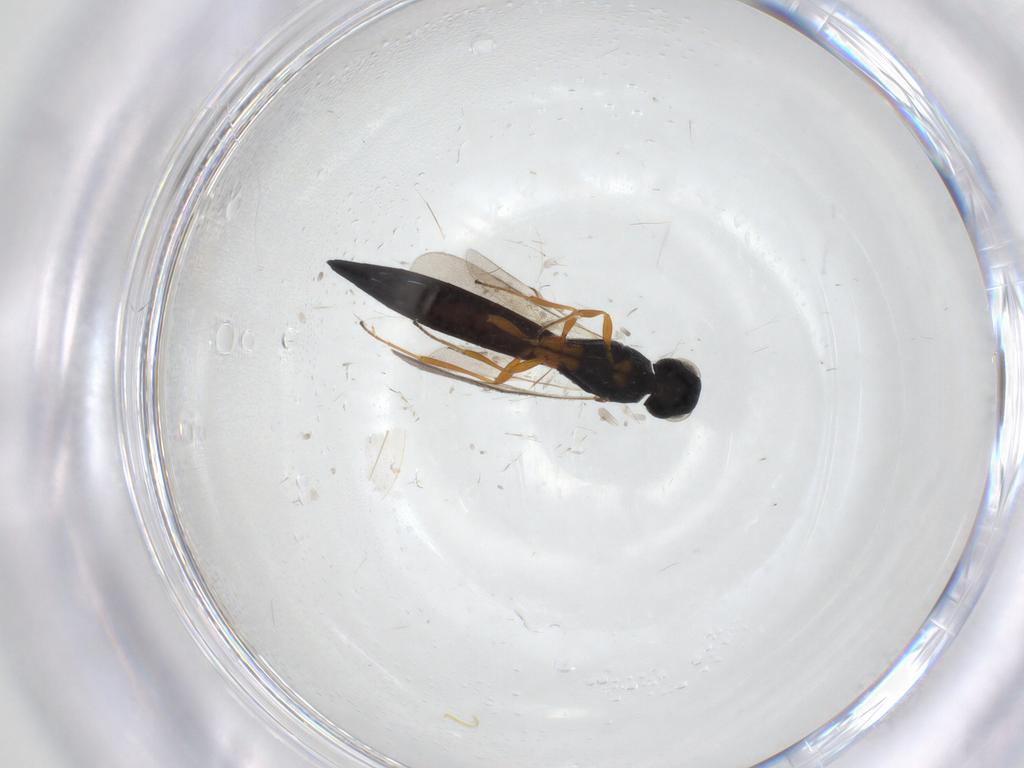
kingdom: Animalia
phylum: Arthropoda
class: Insecta
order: Hymenoptera
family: Scelionidae
